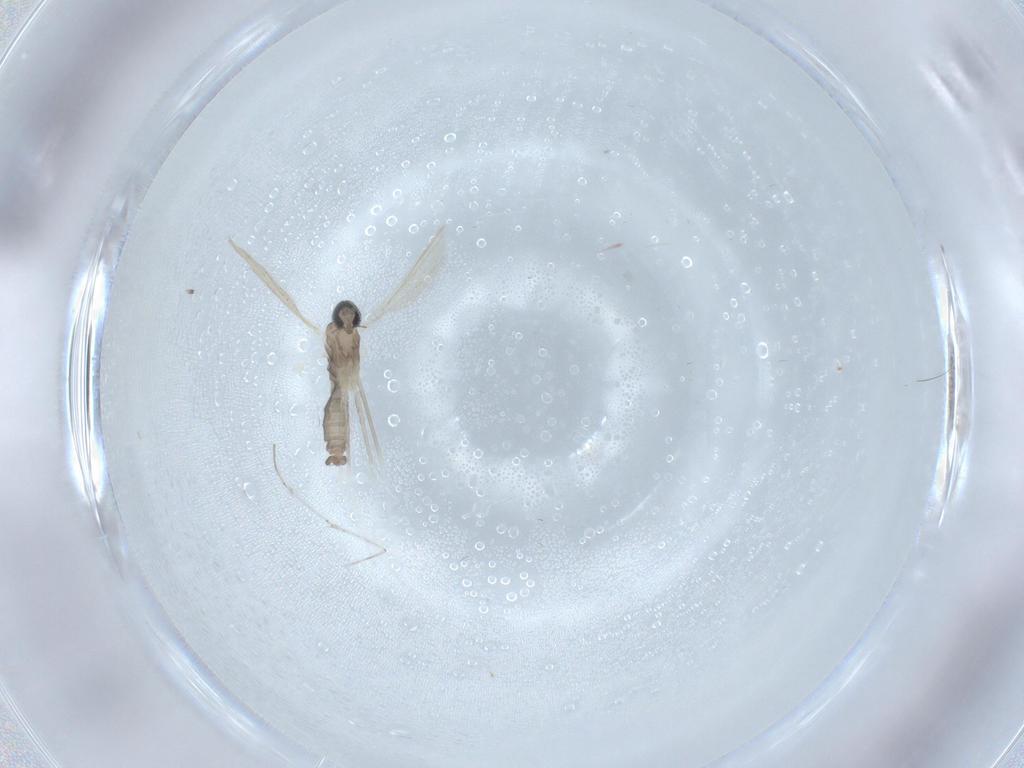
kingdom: Animalia
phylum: Arthropoda
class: Insecta
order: Diptera
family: Cecidomyiidae
